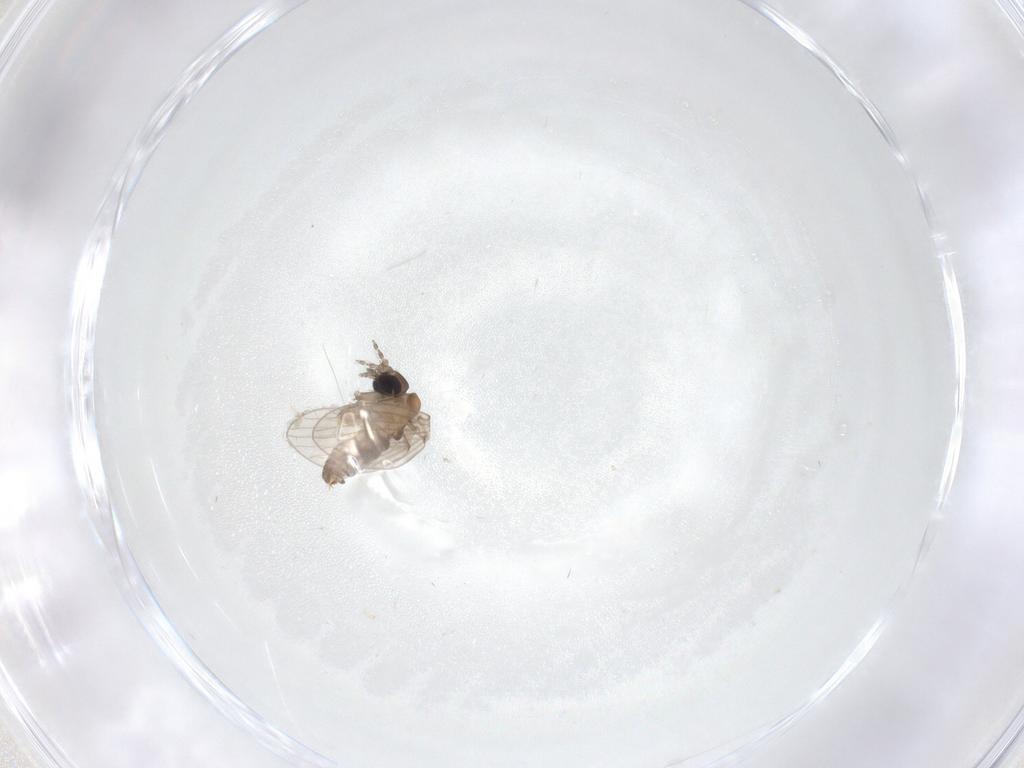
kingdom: Animalia
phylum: Arthropoda
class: Insecta
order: Diptera
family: Psychodidae
